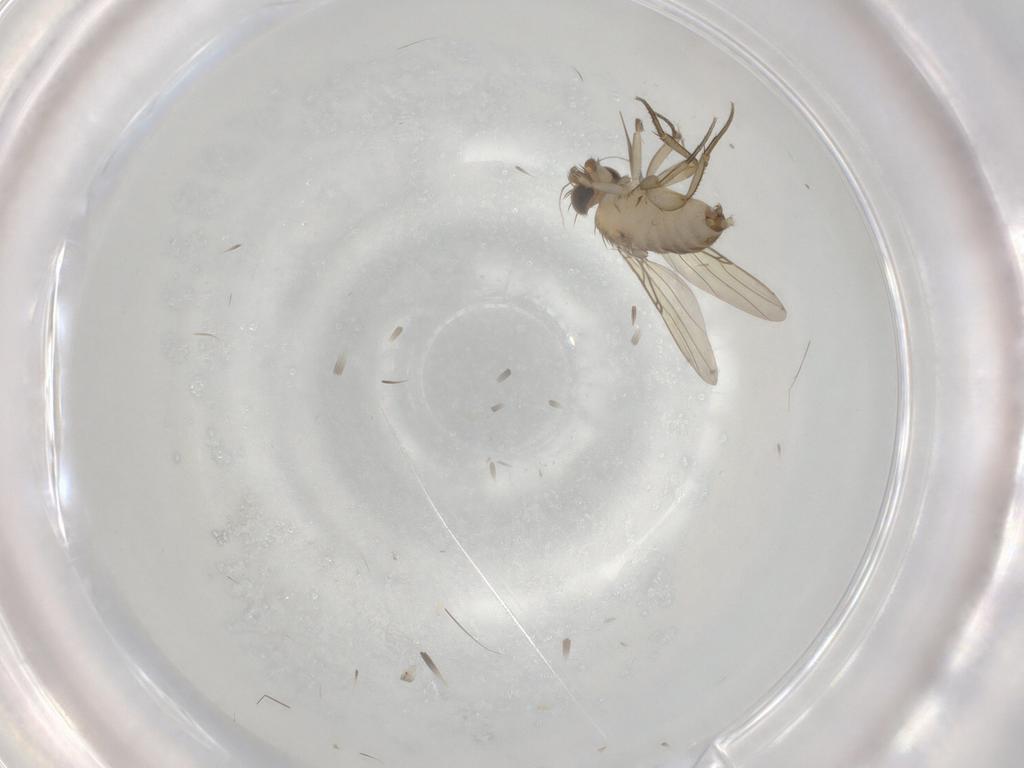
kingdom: Animalia
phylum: Arthropoda
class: Insecta
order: Diptera
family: Phoridae
